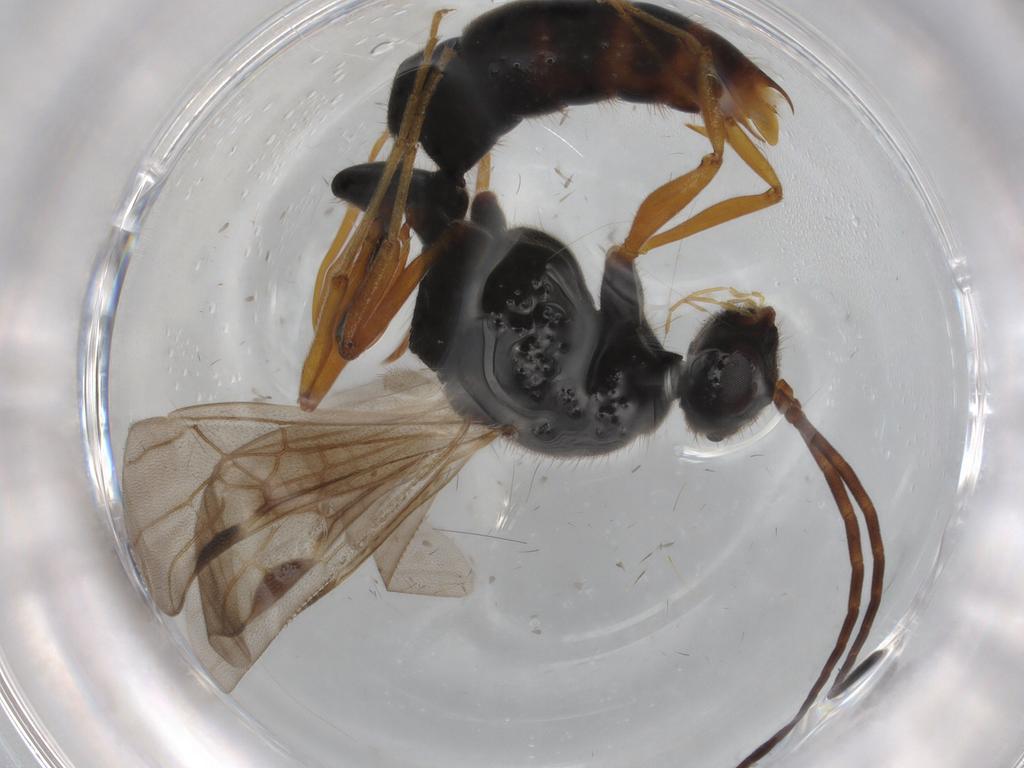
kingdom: Animalia
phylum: Arthropoda
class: Insecta
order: Hymenoptera
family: Formicidae
